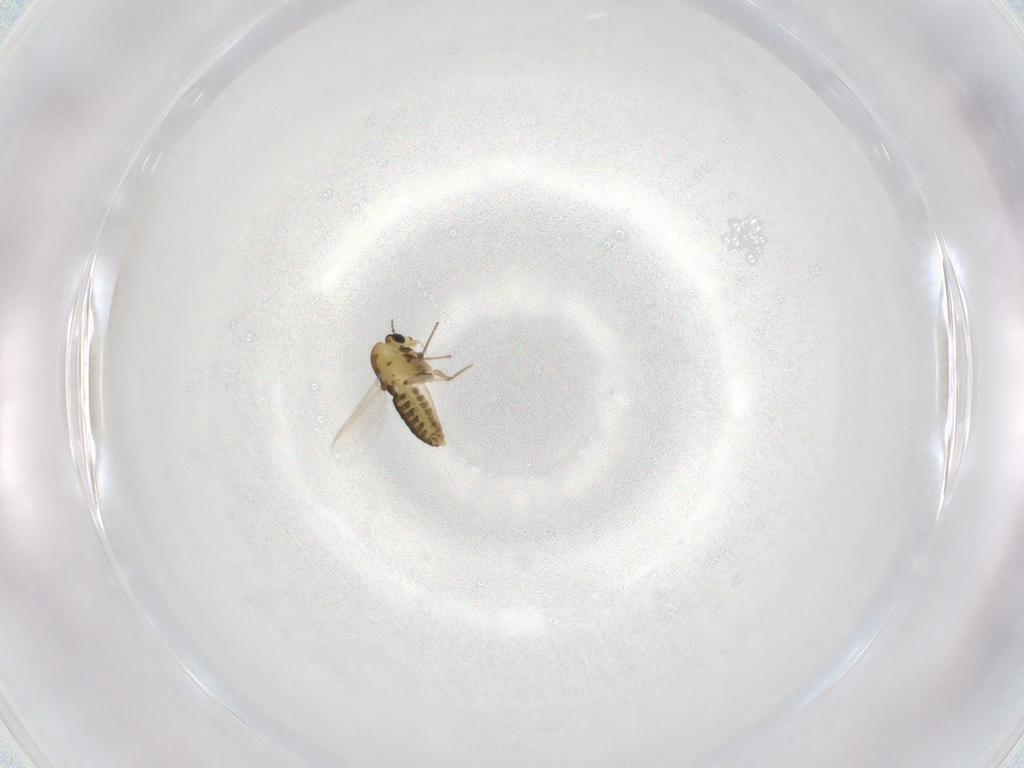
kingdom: Animalia
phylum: Arthropoda
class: Insecta
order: Diptera
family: Chironomidae
